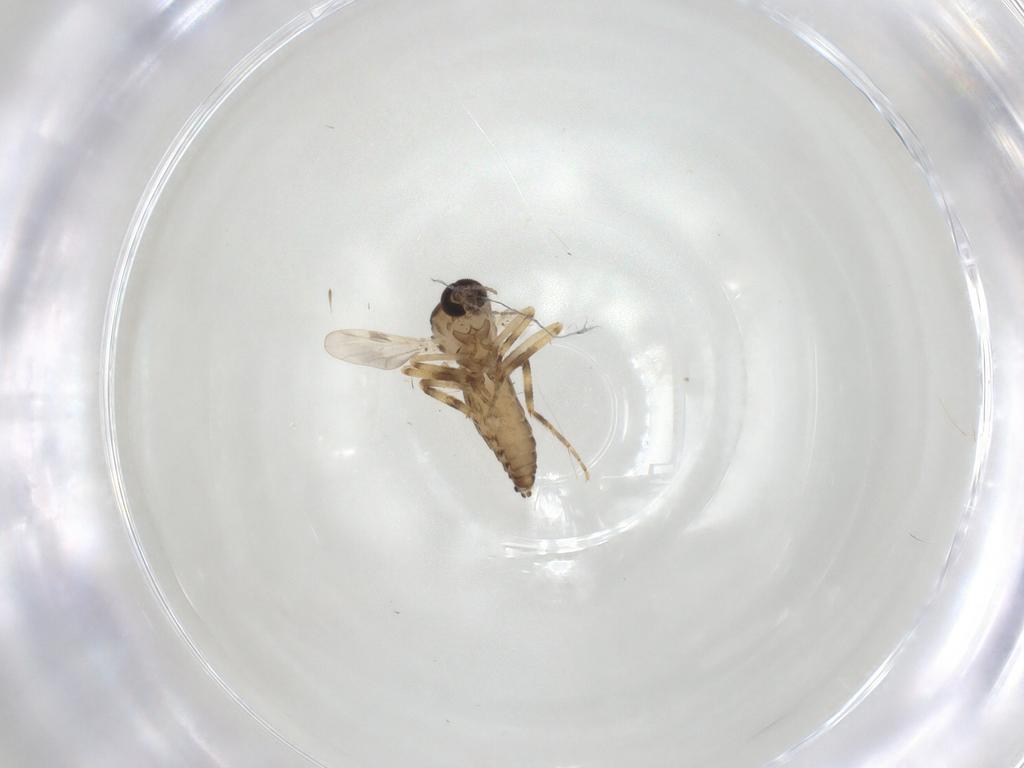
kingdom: Animalia
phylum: Arthropoda
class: Insecta
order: Diptera
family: Ceratopogonidae
